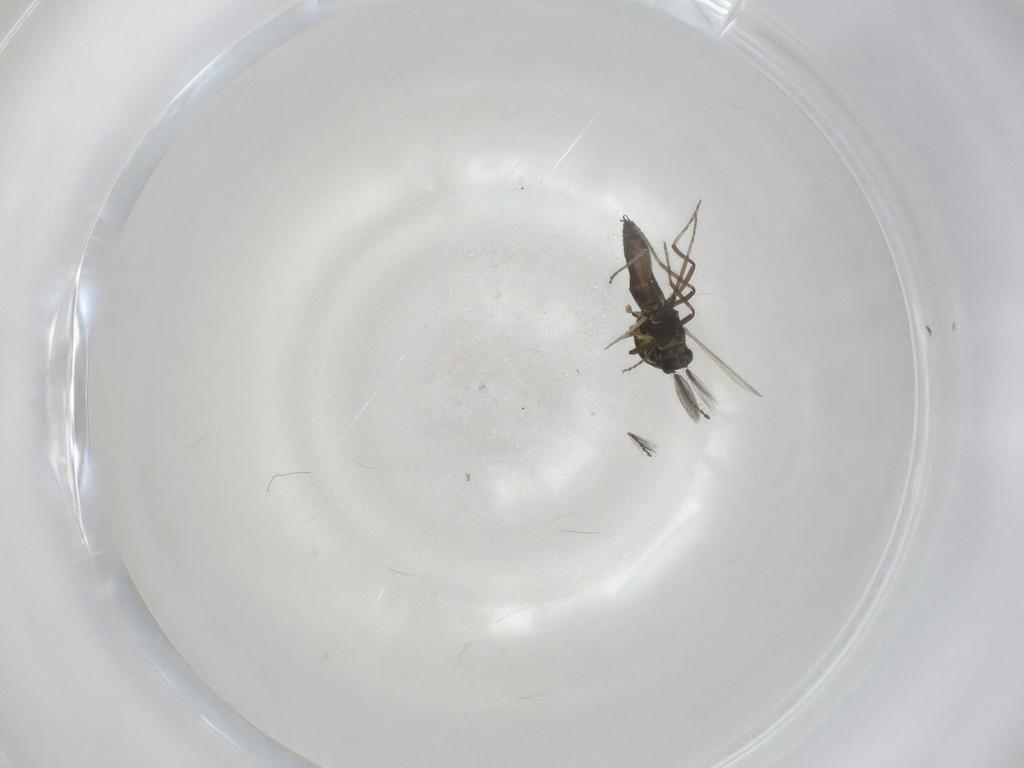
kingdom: Animalia
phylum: Arthropoda
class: Insecta
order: Diptera
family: Ceratopogonidae
